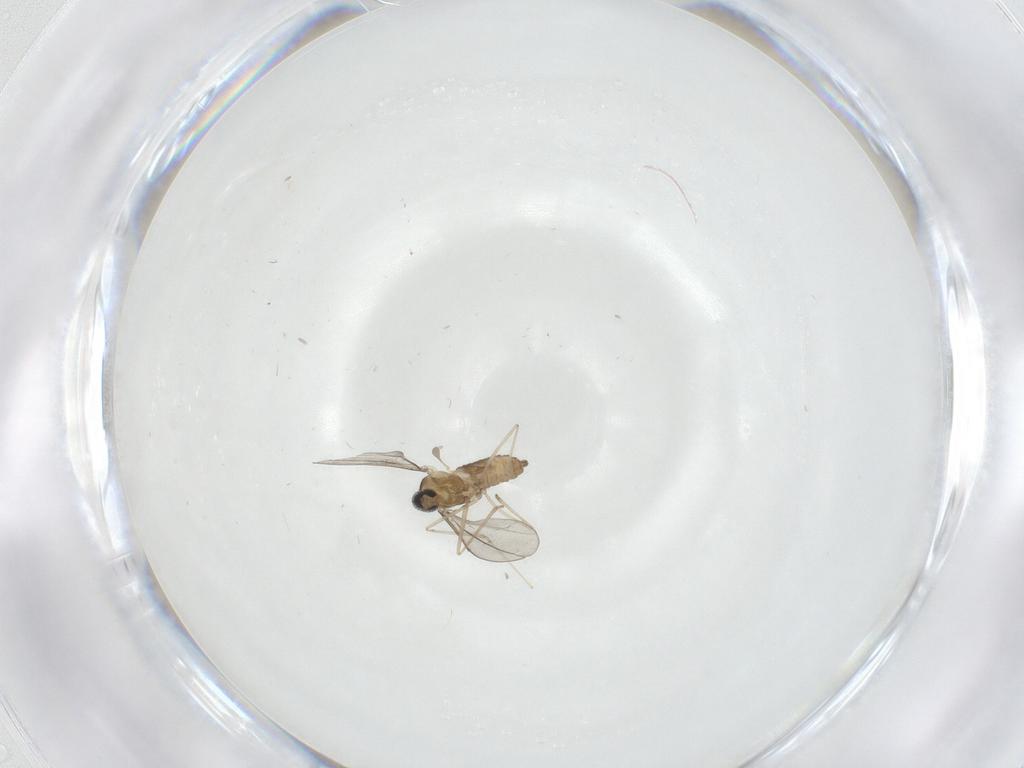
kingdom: Animalia
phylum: Arthropoda
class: Insecta
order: Diptera
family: Cecidomyiidae
